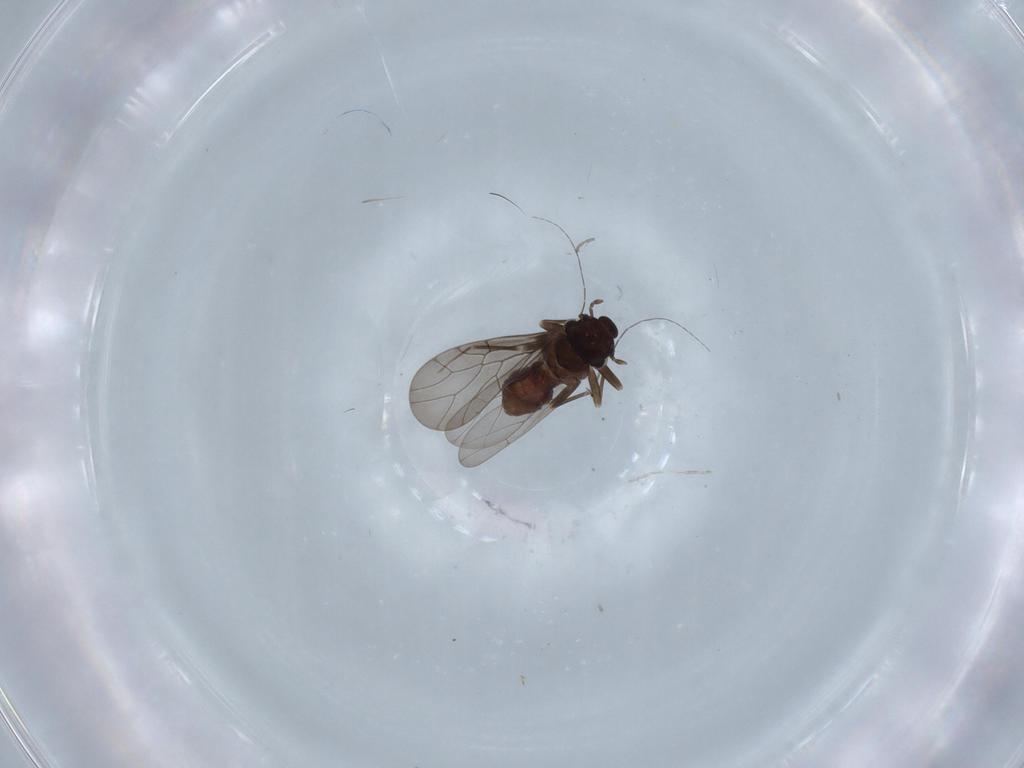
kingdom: Animalia
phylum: Arthropoda
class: Insecta
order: Psocodea
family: Lepidopsocidae
